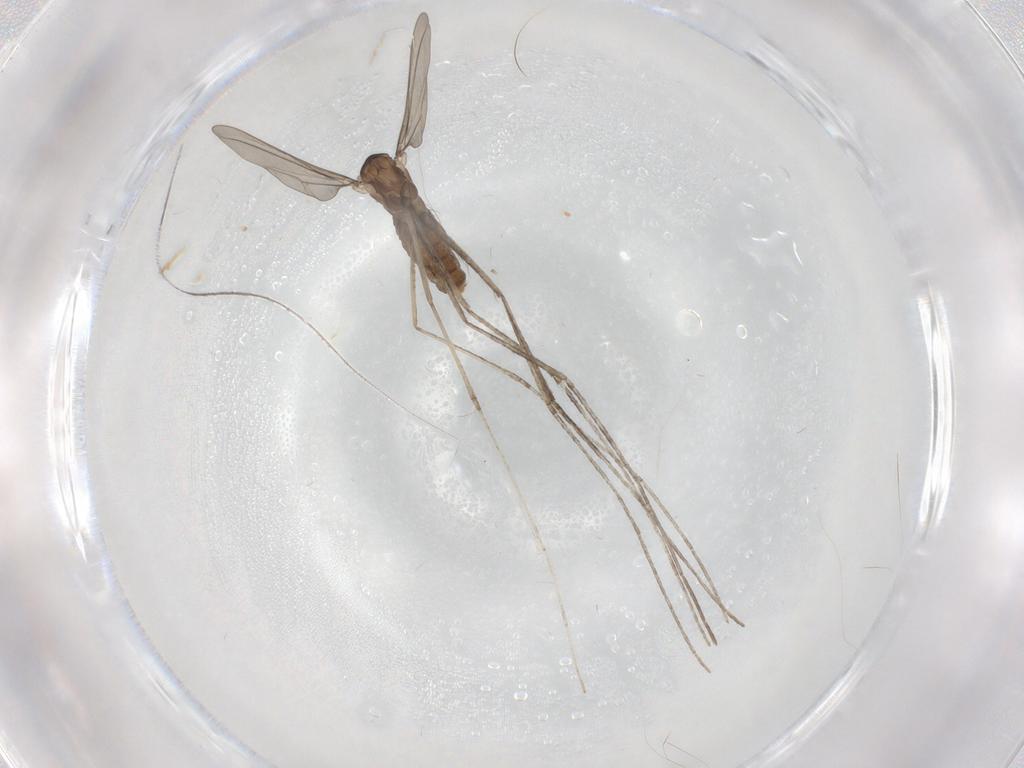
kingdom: Animalia
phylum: Arthropoda
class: Insecta
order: Diptera
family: Cecidomyiidae
